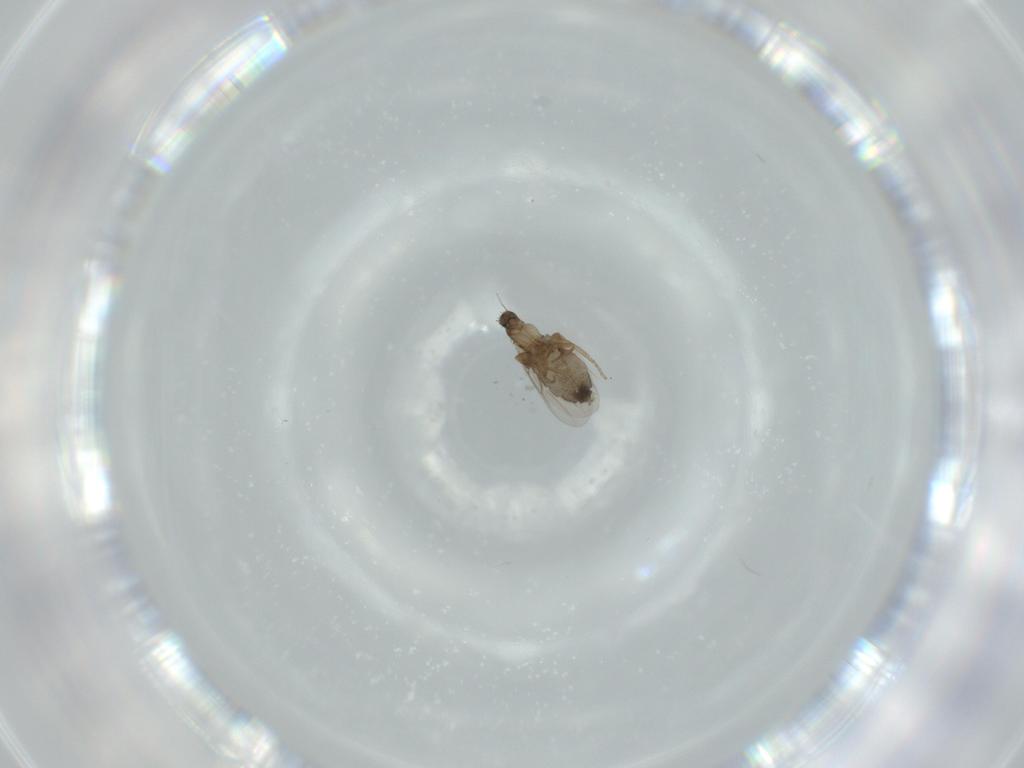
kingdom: Animalia
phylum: Arthropoda
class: Insecta
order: Diptera
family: Phoridae
